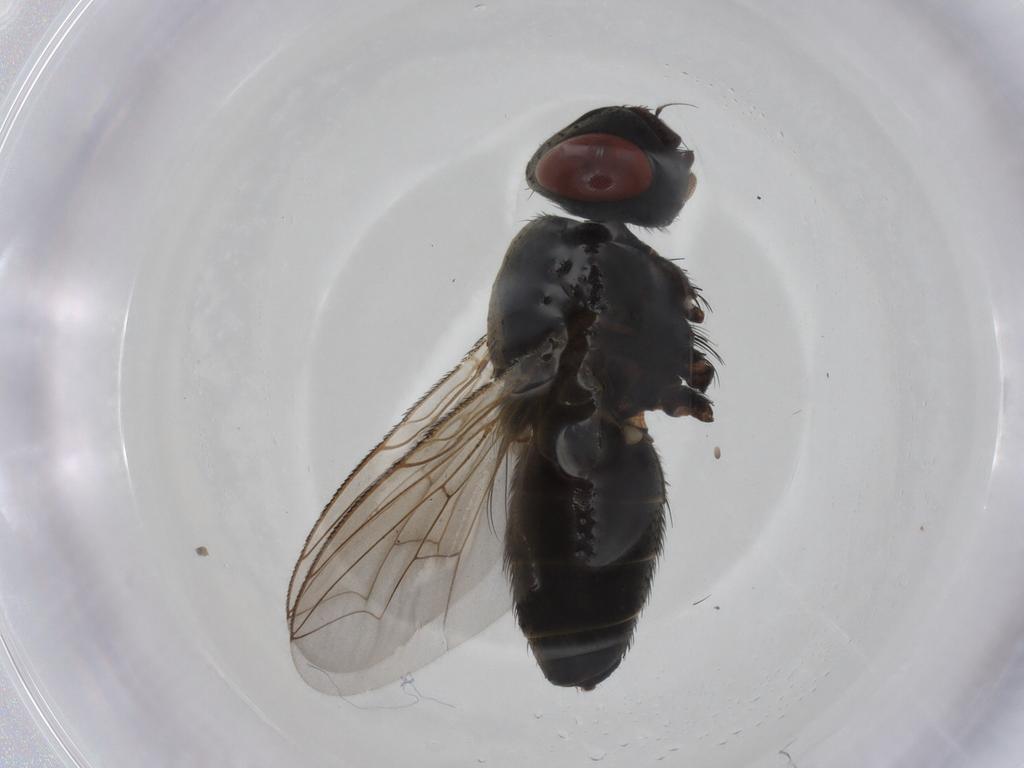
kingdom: Animalia
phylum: Arthropoda
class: Insecta
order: Diptera
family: Sarcophagidae
